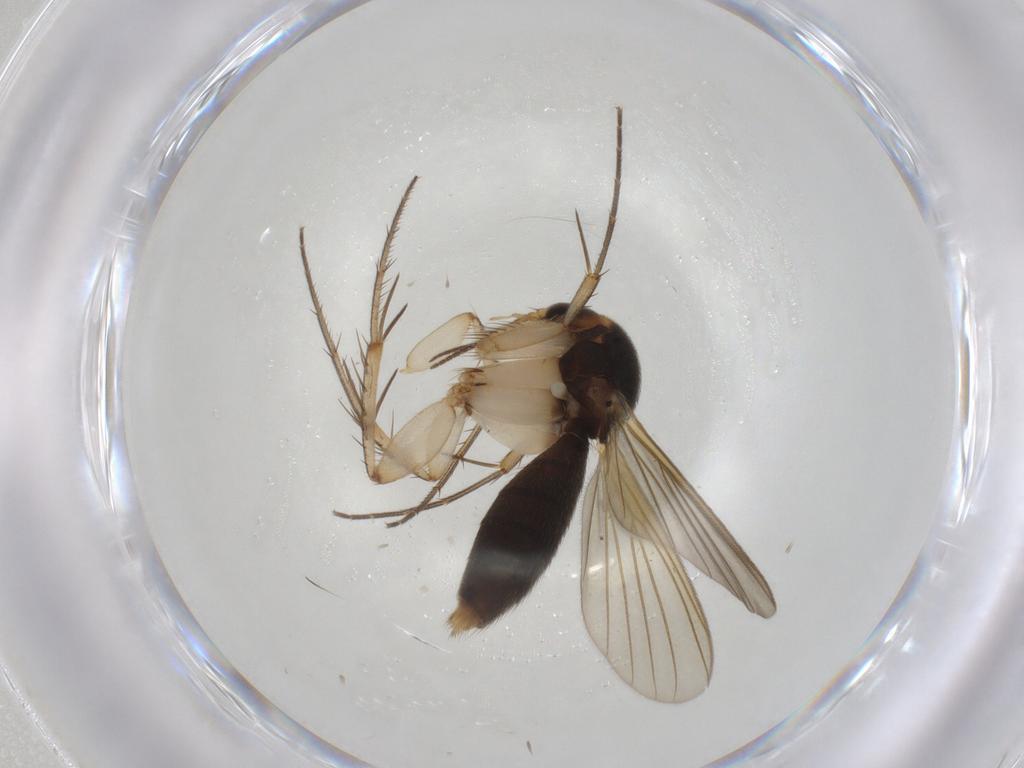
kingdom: Animalia
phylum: Arthropoda
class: Insecta
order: Diptera
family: Mycetophilidae
